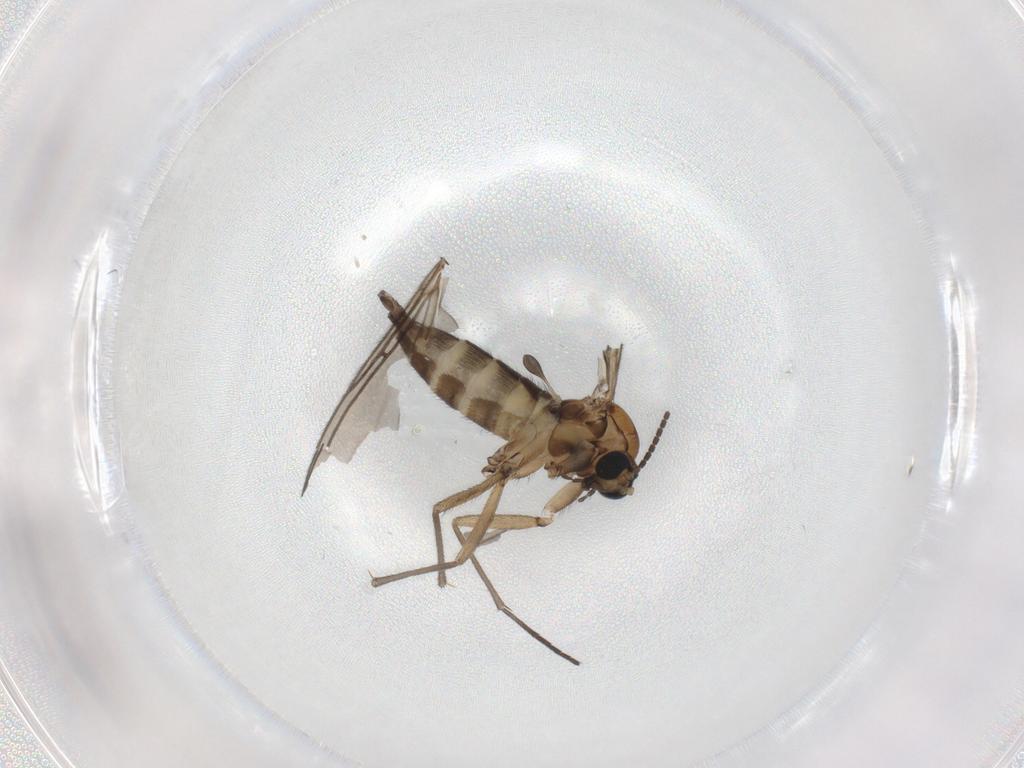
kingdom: Animalia
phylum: Arthropoda
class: Insecta
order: Diptera
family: Sciaridae
